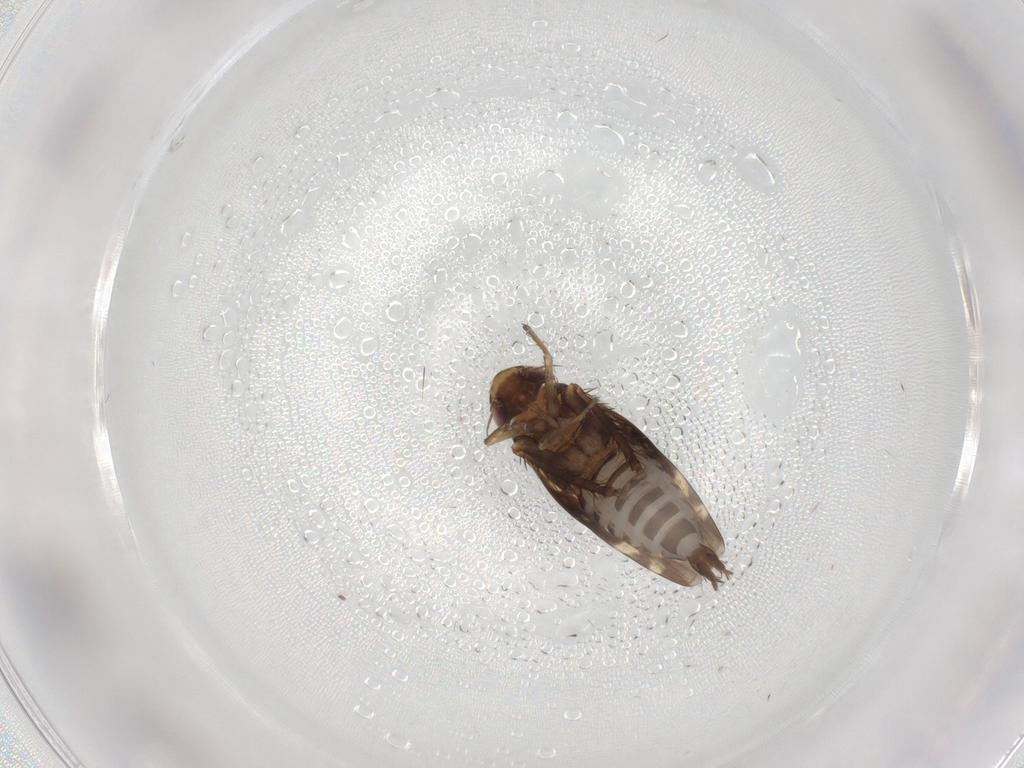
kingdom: Animalia
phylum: Arthropoda
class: Insecta
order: Hemiptera
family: Cicadellidae
